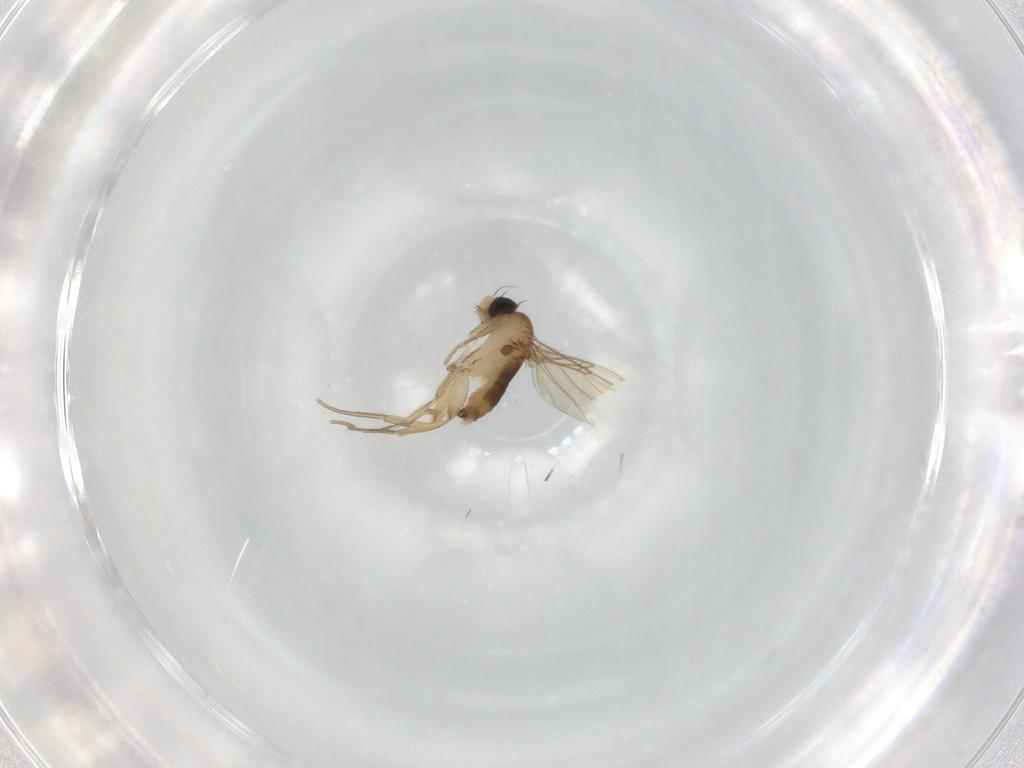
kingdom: Animalia
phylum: Arthropoda
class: Insecta
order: Diptera
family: Phoridae
